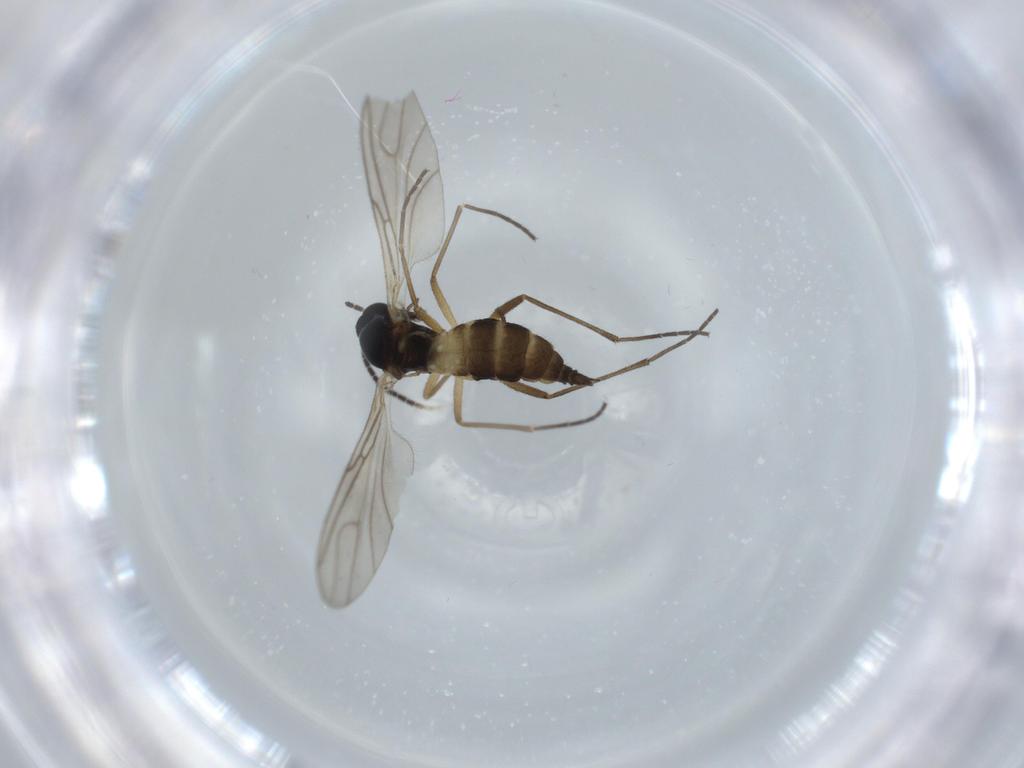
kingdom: Animalia
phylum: Arthropoda
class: Insecta
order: Diptera
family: Sciaridae
